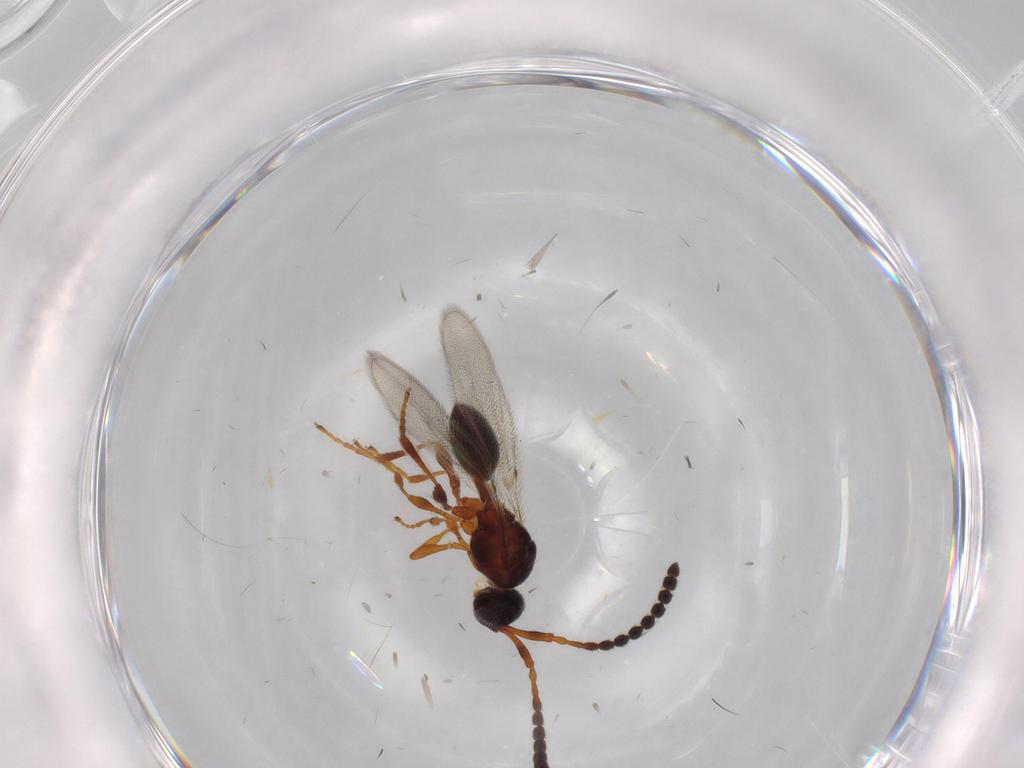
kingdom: Animalia
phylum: Arthropoda
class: Insecta
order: Hymenoptera
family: Diapriidae
